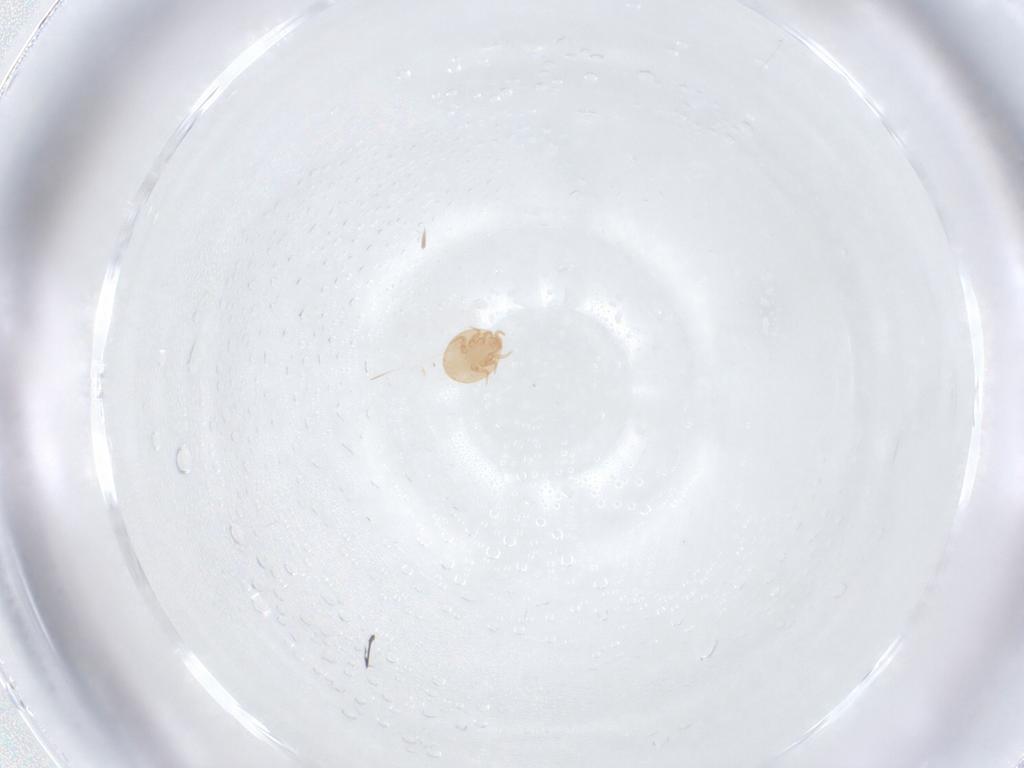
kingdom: Animalia
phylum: Arthropoda
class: Arachnida
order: Mesostigmata
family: Trematuridae
